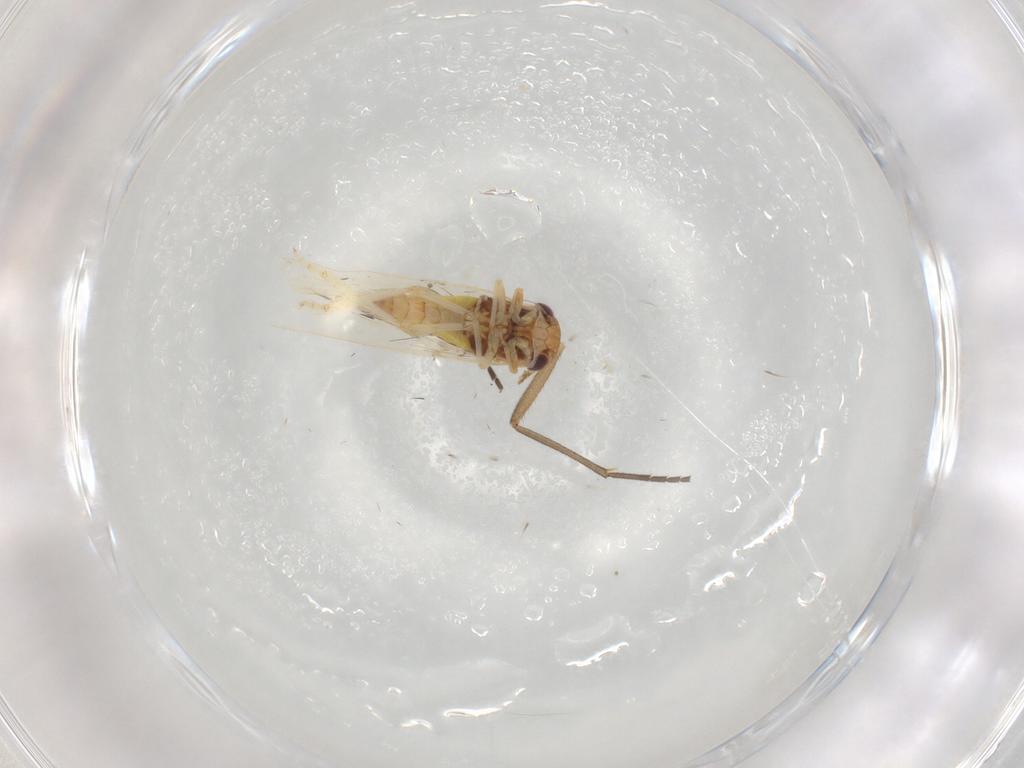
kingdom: Animalia
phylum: Arthropoda
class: Insecta
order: Hemiptera
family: Cicadellidae
